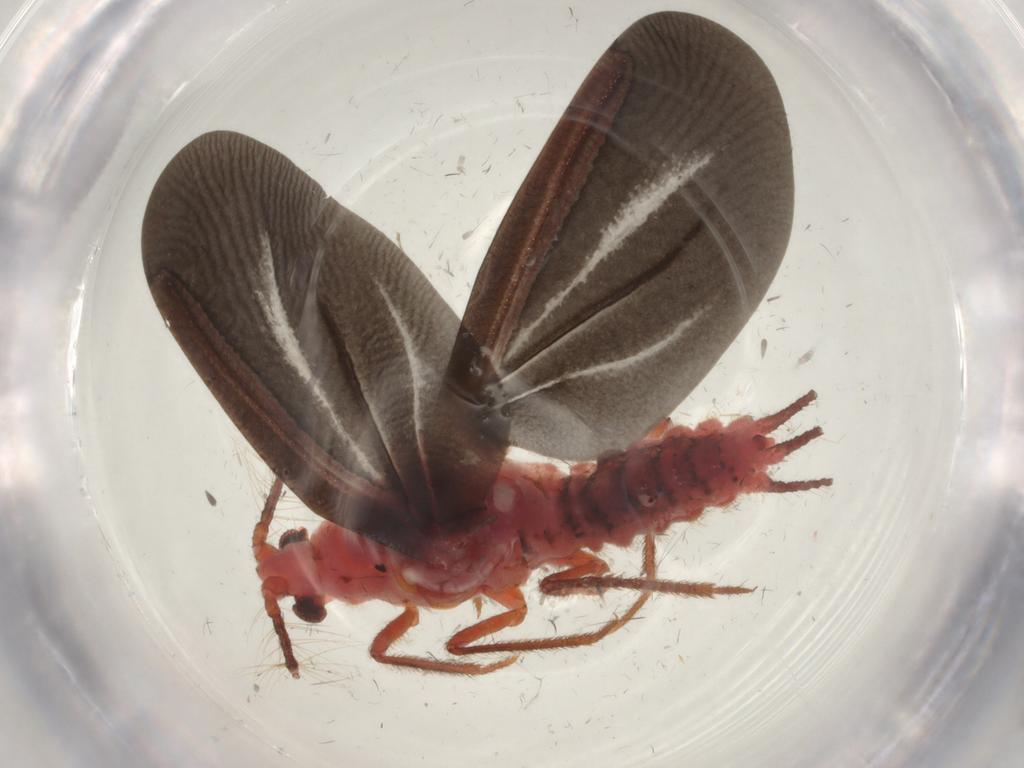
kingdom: Animalia
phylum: Arthropoda
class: Insecta
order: Hemiptera
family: Margarodidae
